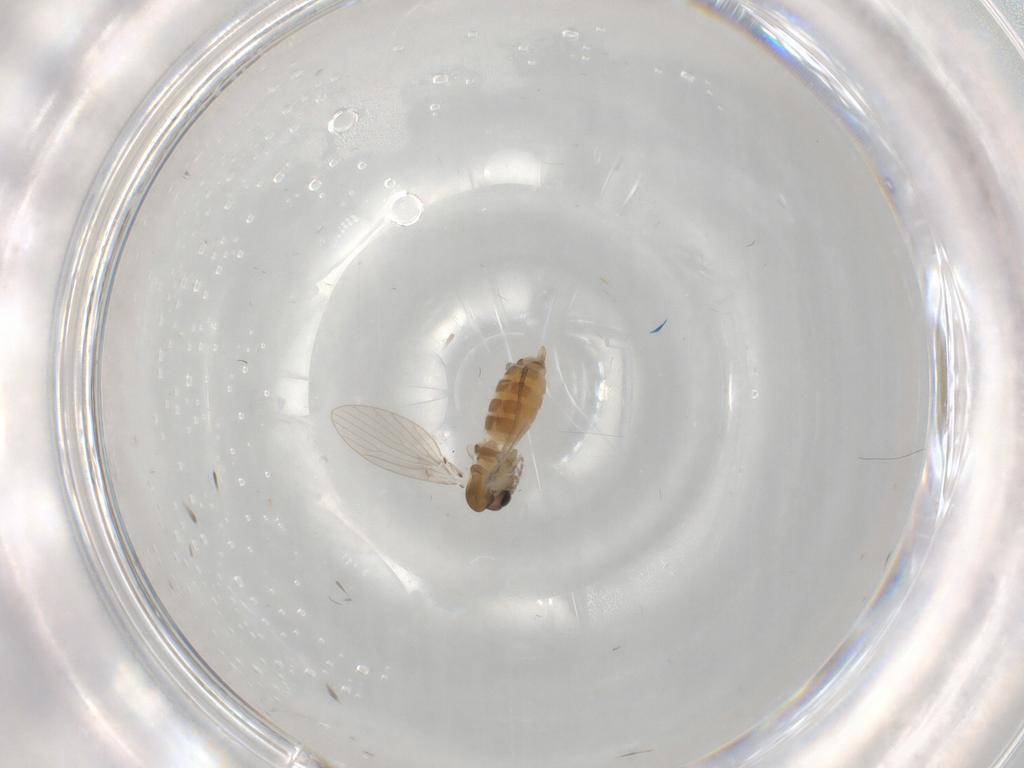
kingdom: Animalia
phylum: Arthropoda
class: Insecta
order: Diptera
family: Psychodidae
